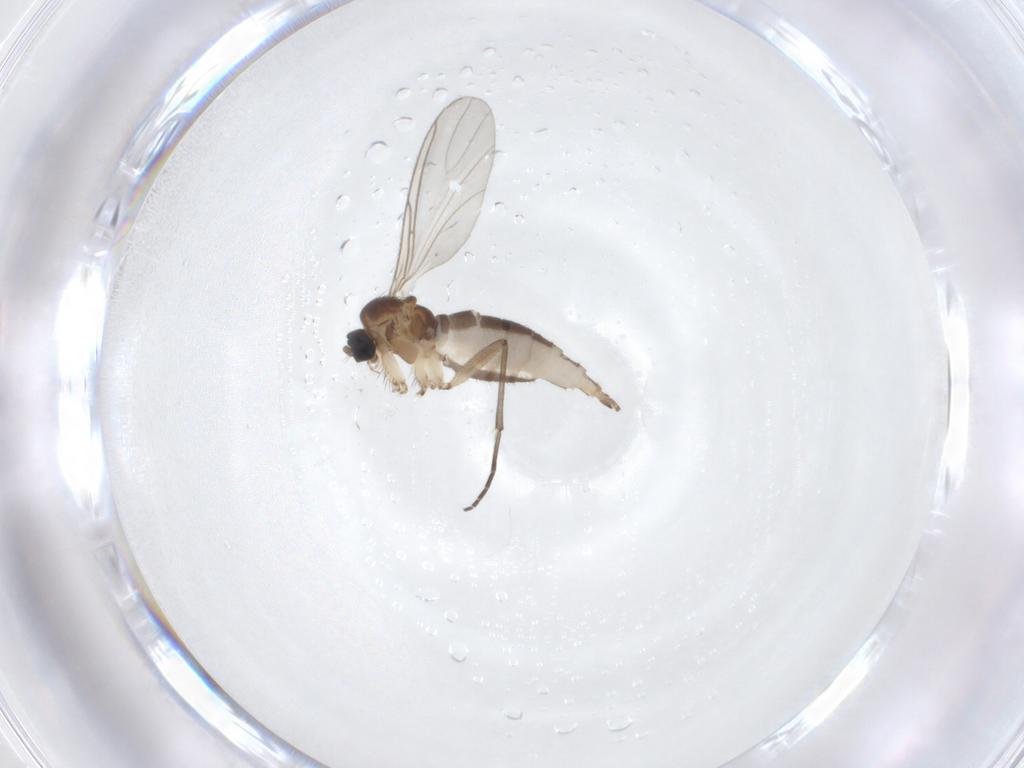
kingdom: Animalia
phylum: Arthropoda
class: Insecta
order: Diptera
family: Sciaridae
